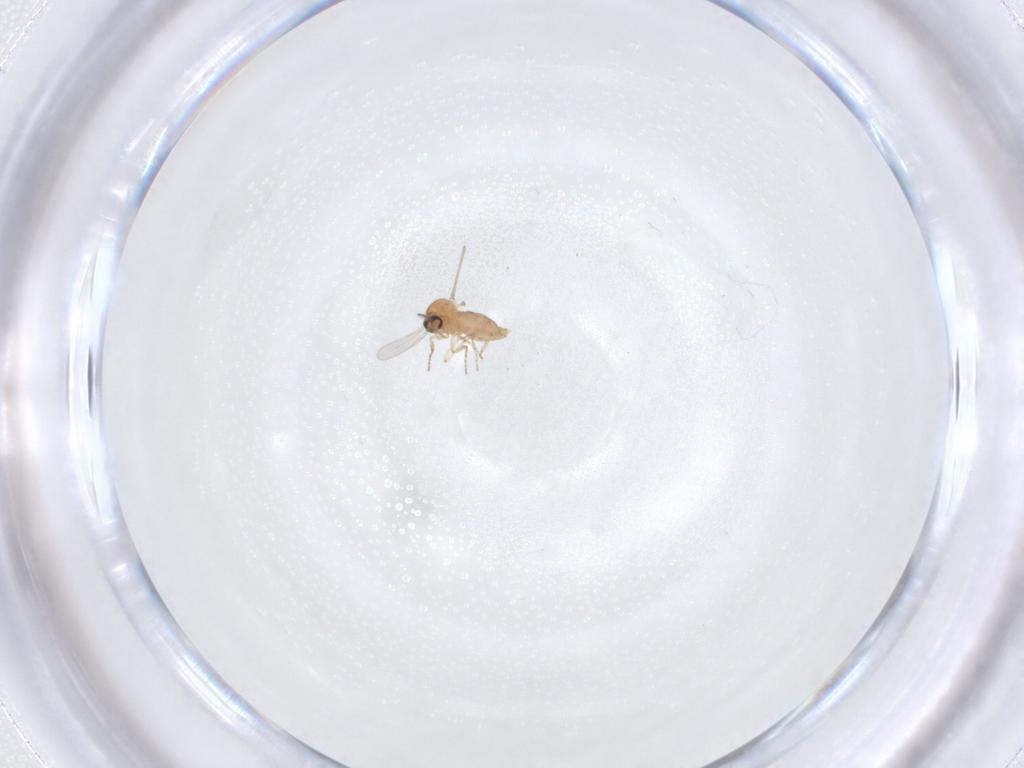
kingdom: Animalia
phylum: Arthropoda
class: Insecta
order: Diptera
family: Ceratopogonidae
